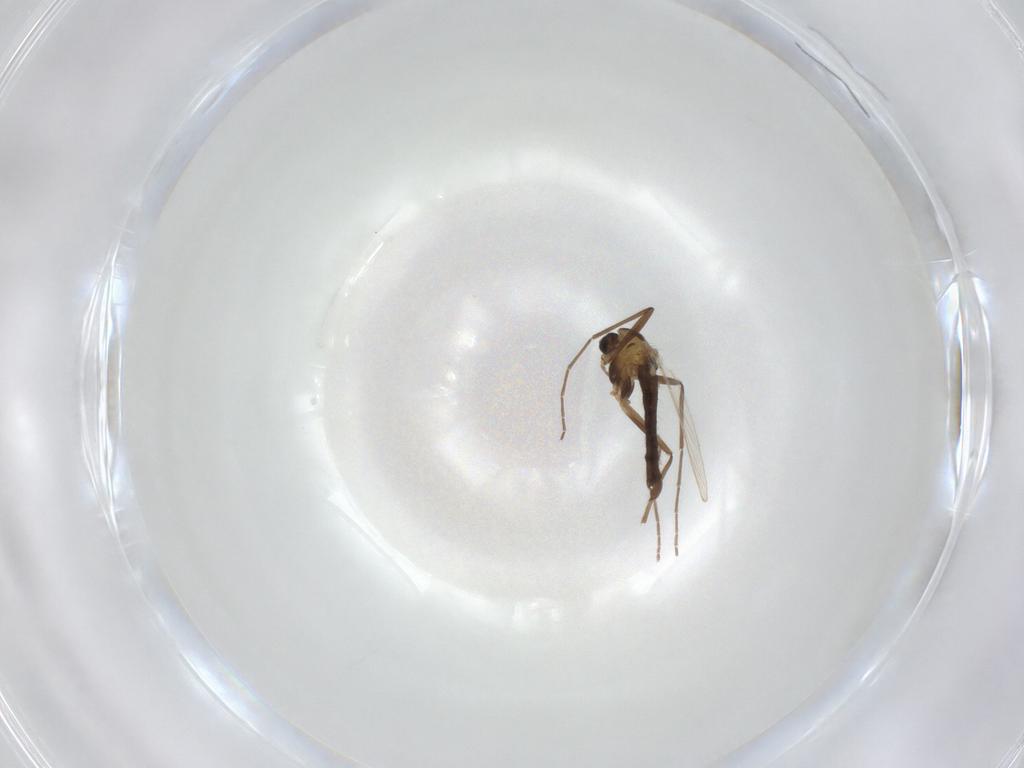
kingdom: Animalia
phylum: Arthropoda
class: Insecta
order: Diptera
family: Chironomidae
